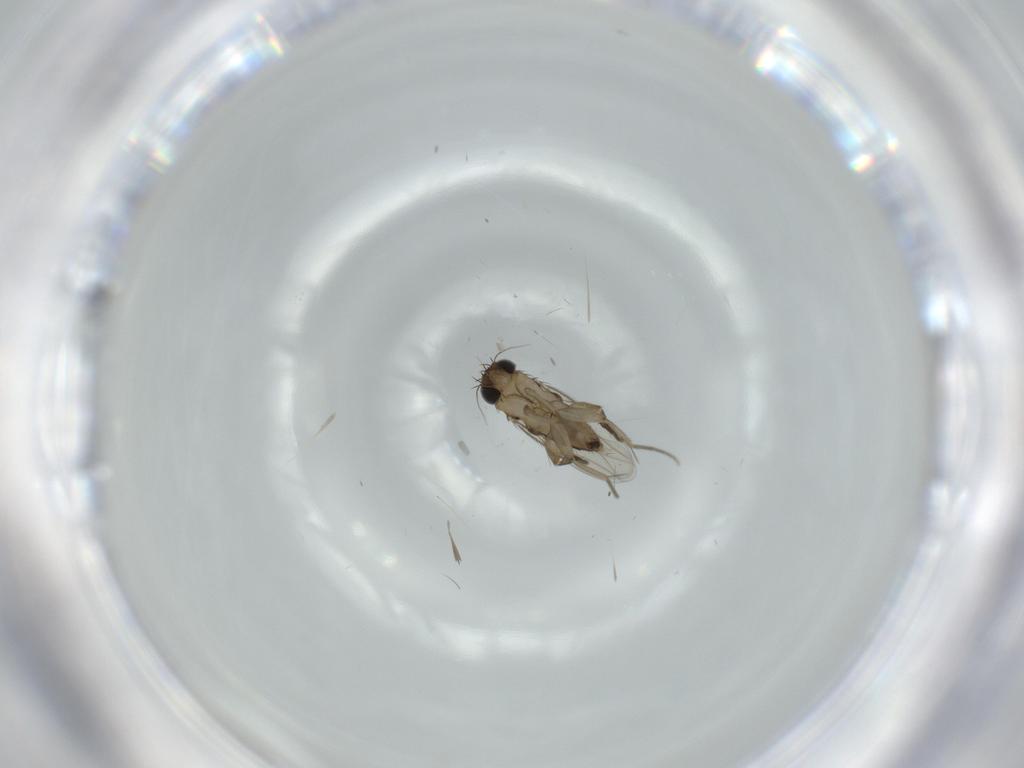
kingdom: Animalia
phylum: Arthropoda
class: Insecta
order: Diptera
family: Phoridae
